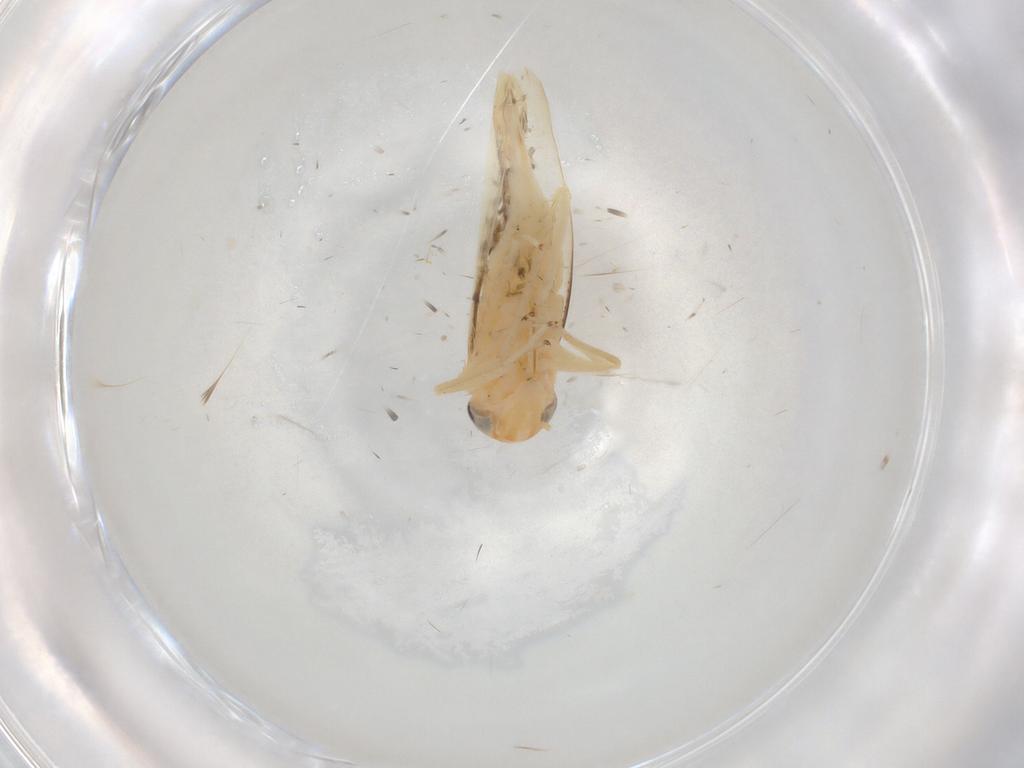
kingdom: Animalia
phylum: Arthropoda
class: Insecta
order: Hemiptera
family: Cicadellidae
